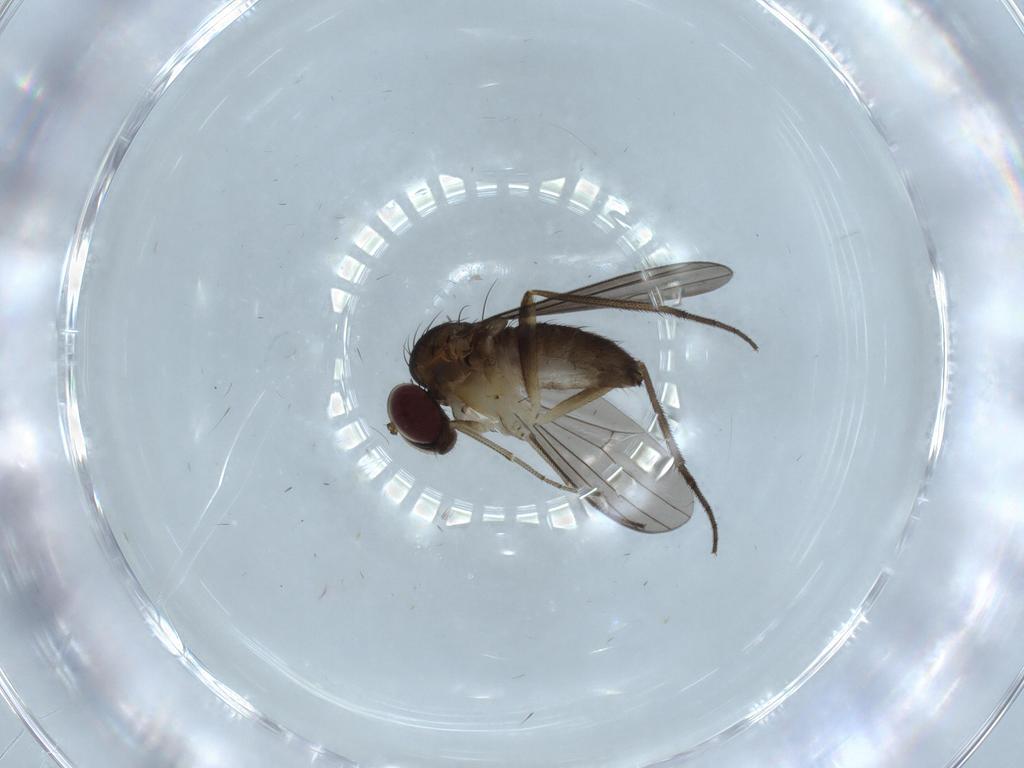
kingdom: Animalia
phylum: Arthropoda
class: Insecta
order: Diptera
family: Dolichopodidae
